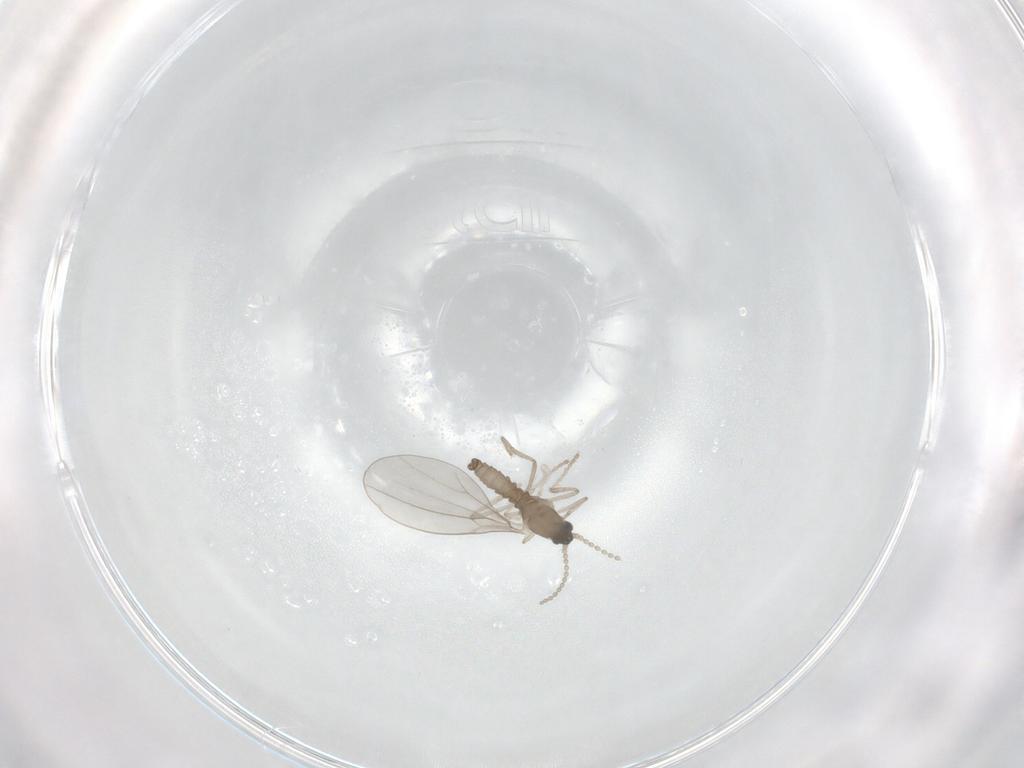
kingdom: Animalia
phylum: Arthropoda
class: Insecta
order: Diptera
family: Cecidomyiidae
